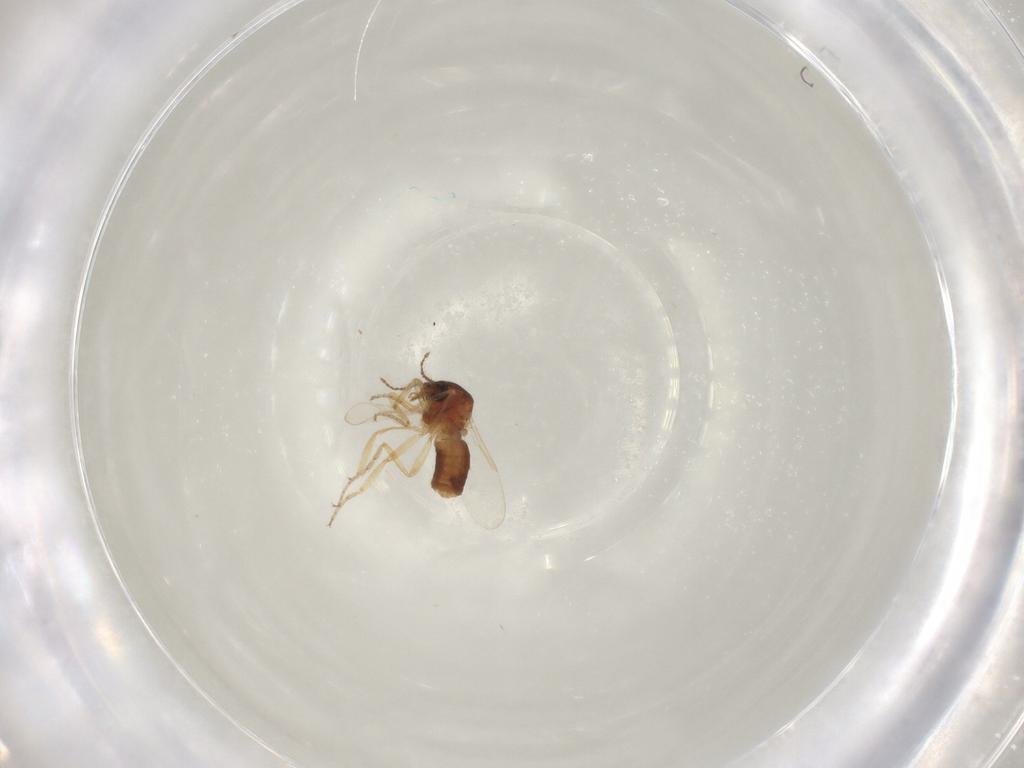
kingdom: Animalia
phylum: Arthropoda
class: Insecta
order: Diptera
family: Ceratopogonidae
